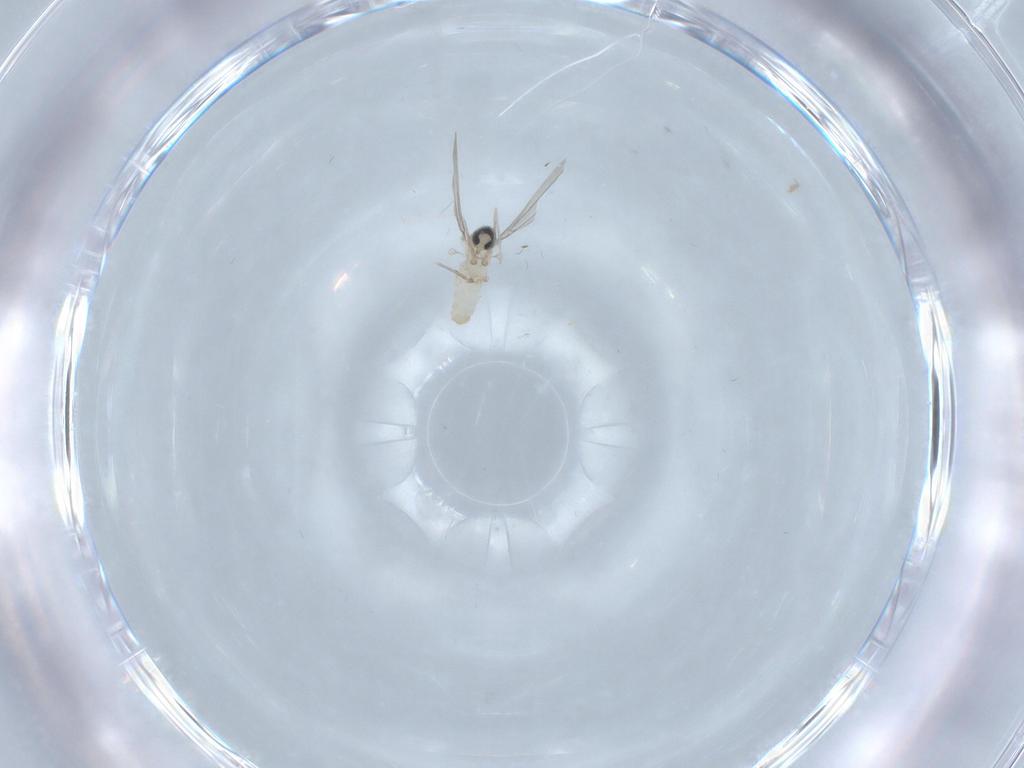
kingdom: Animalia
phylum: Arthropoda
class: Insecta
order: Diptera
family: Cecidomyiidae
